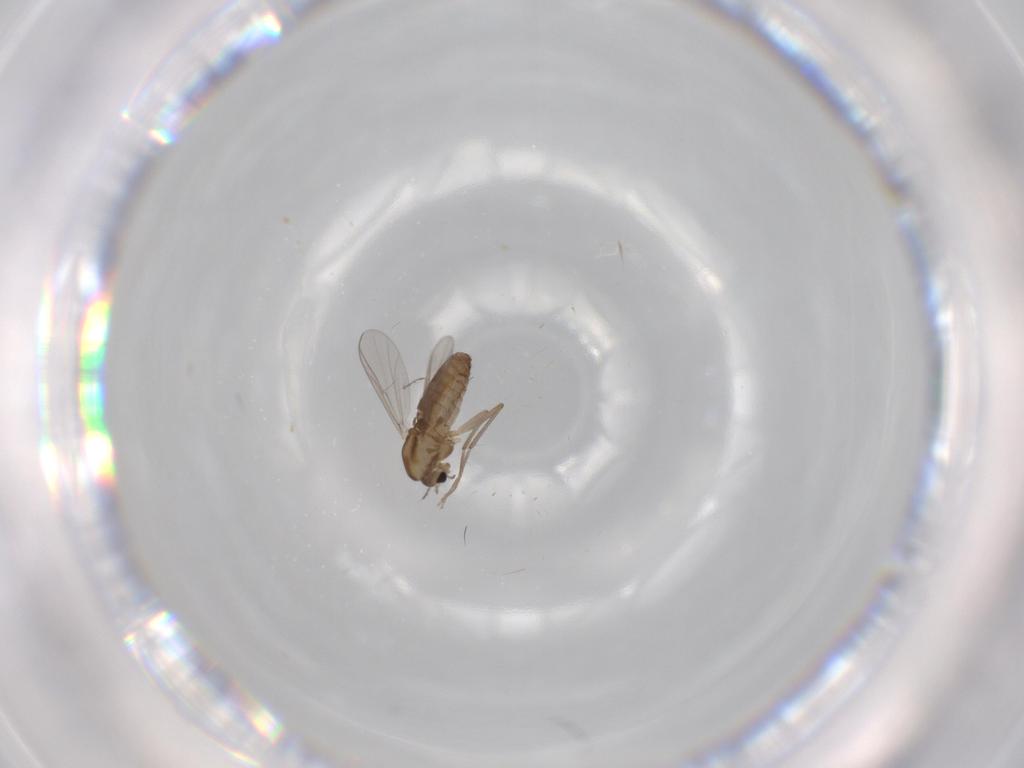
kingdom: Animalia
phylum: Arthropoda
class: Insecta
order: Diptera
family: Chironomidae
